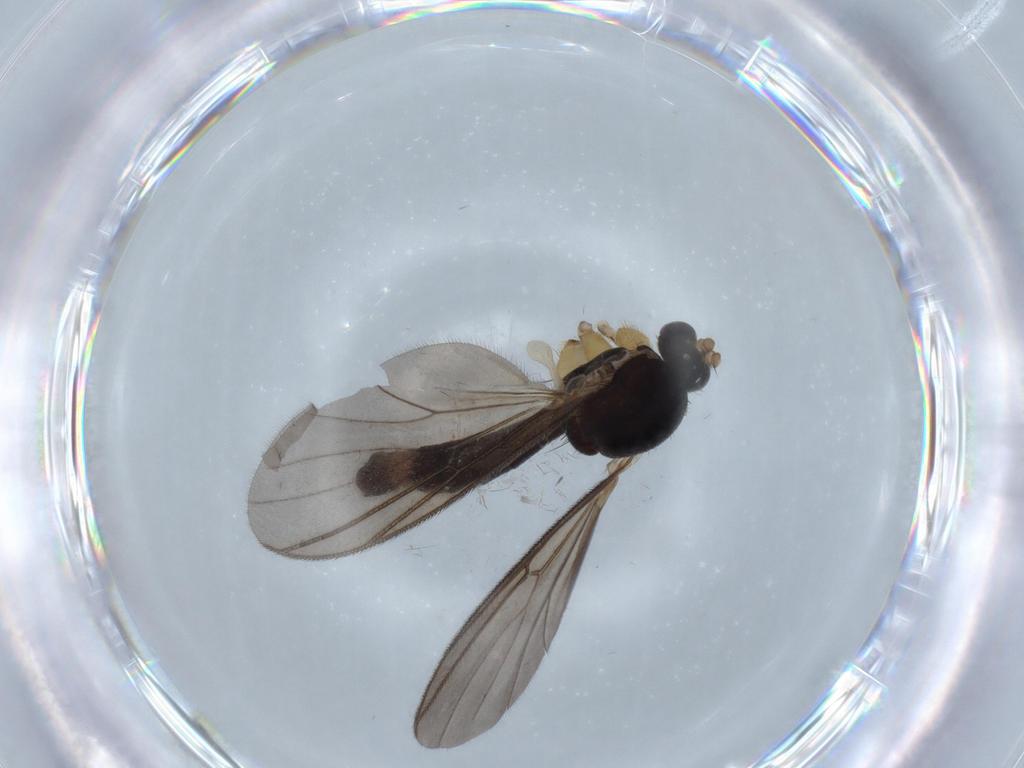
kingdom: Animalia
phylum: Arthropoda
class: Insecta
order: Diptera
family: Mycetophilidae
